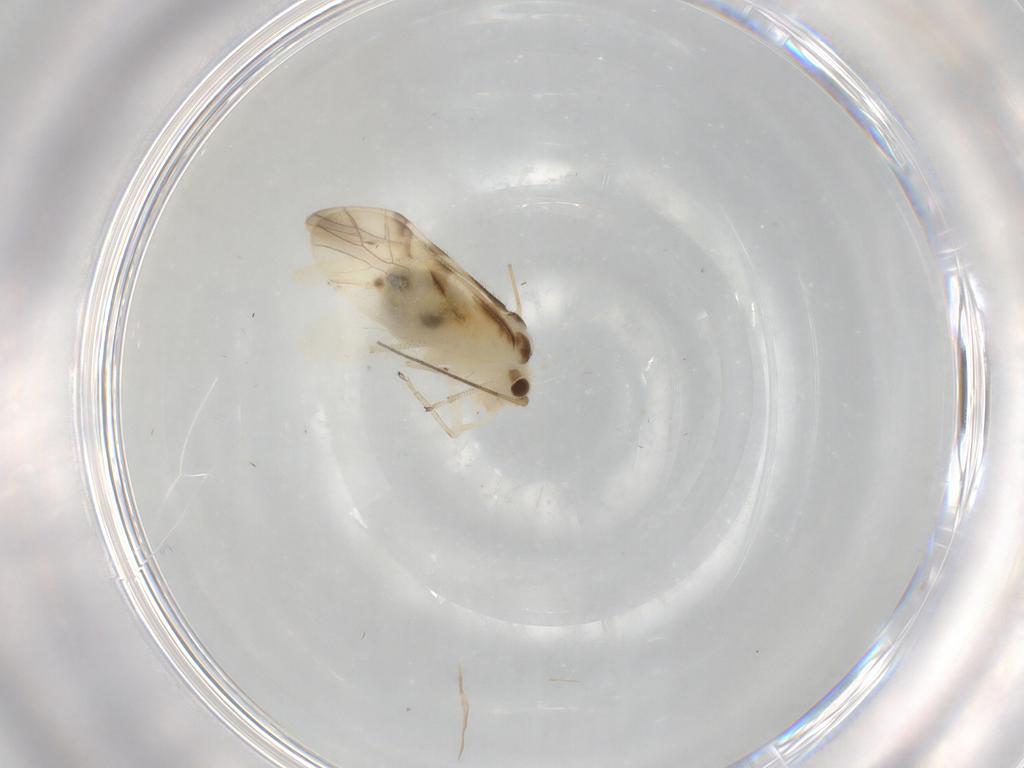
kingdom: Animalia
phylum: Arthropoda
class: Insecta
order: Psocodea
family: Caeciliusidae
